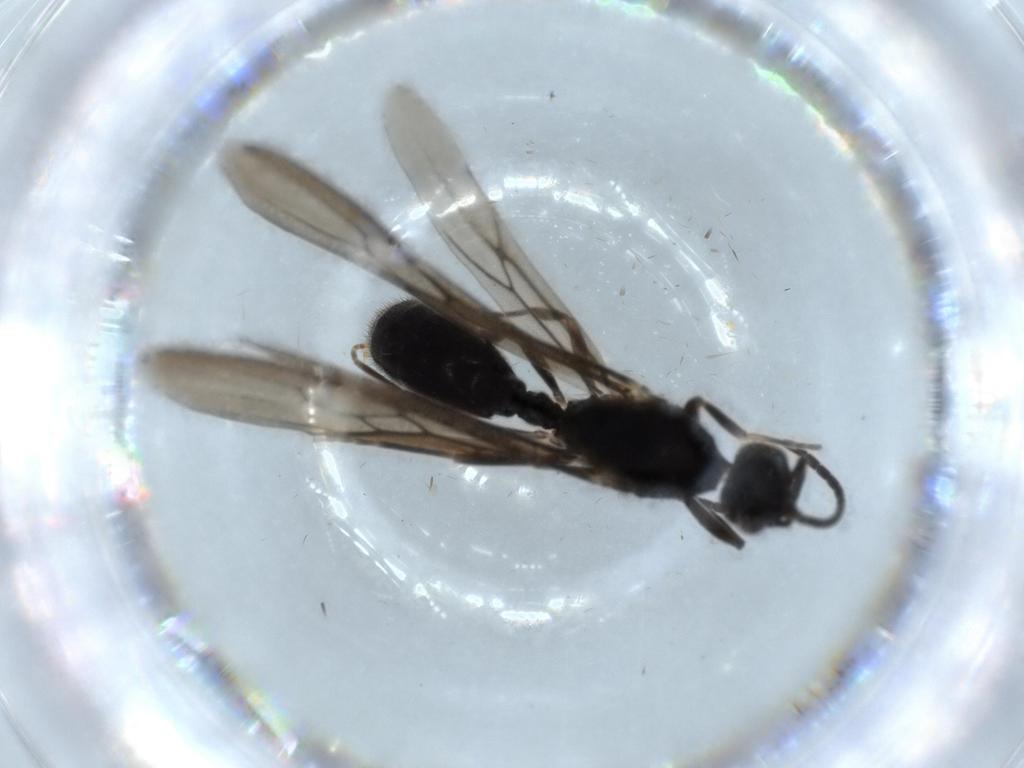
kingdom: Animalia
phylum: Arthropoda
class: Insecta
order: Hymenoptera
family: Formicidae
